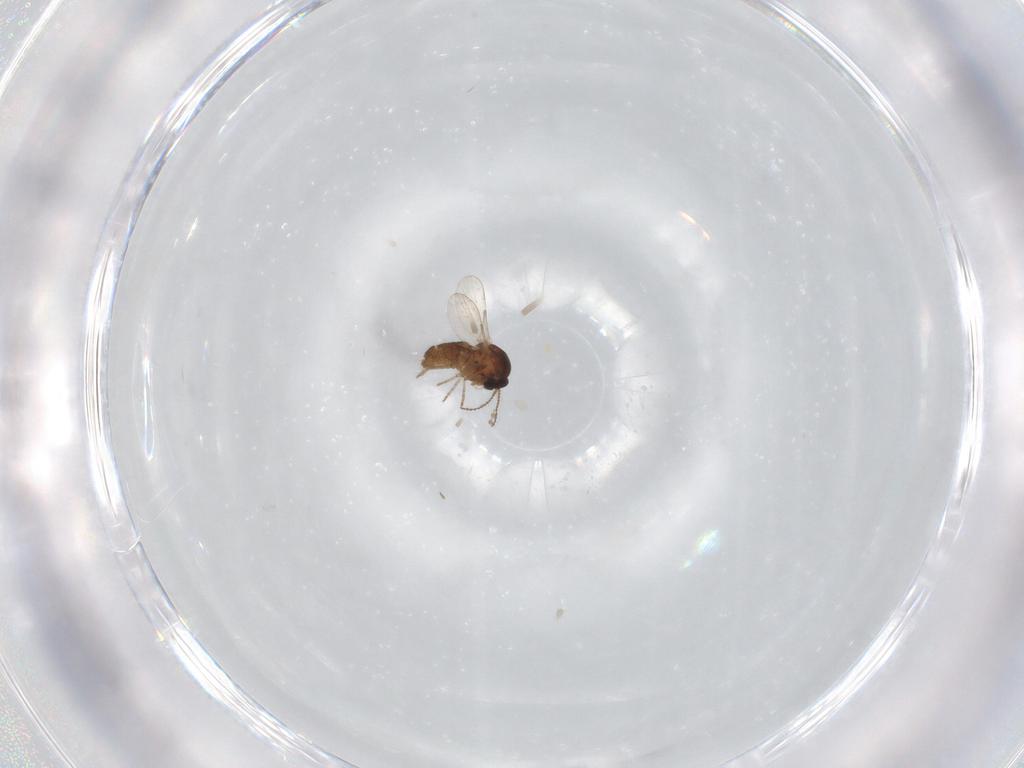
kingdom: Animalia
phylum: Arthropoda
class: Insecta
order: Diptera
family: Ceratopogonidae
